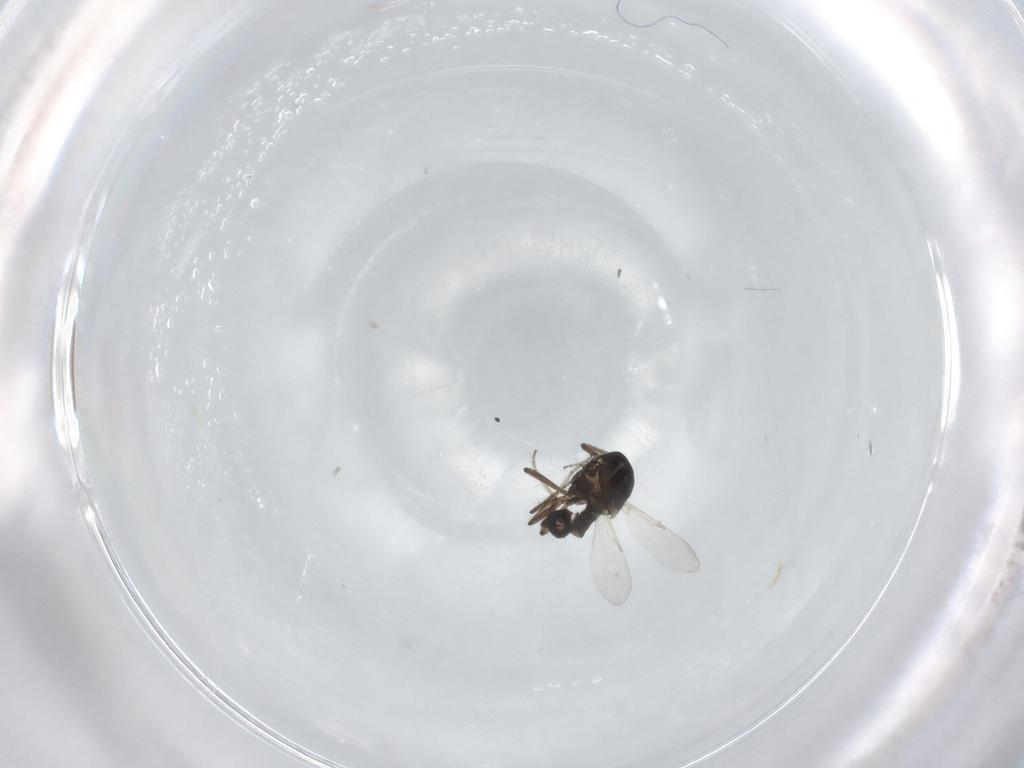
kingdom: Animalia
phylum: Arthropoda
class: Insecta
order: Diptera
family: Ceratopogonidae
